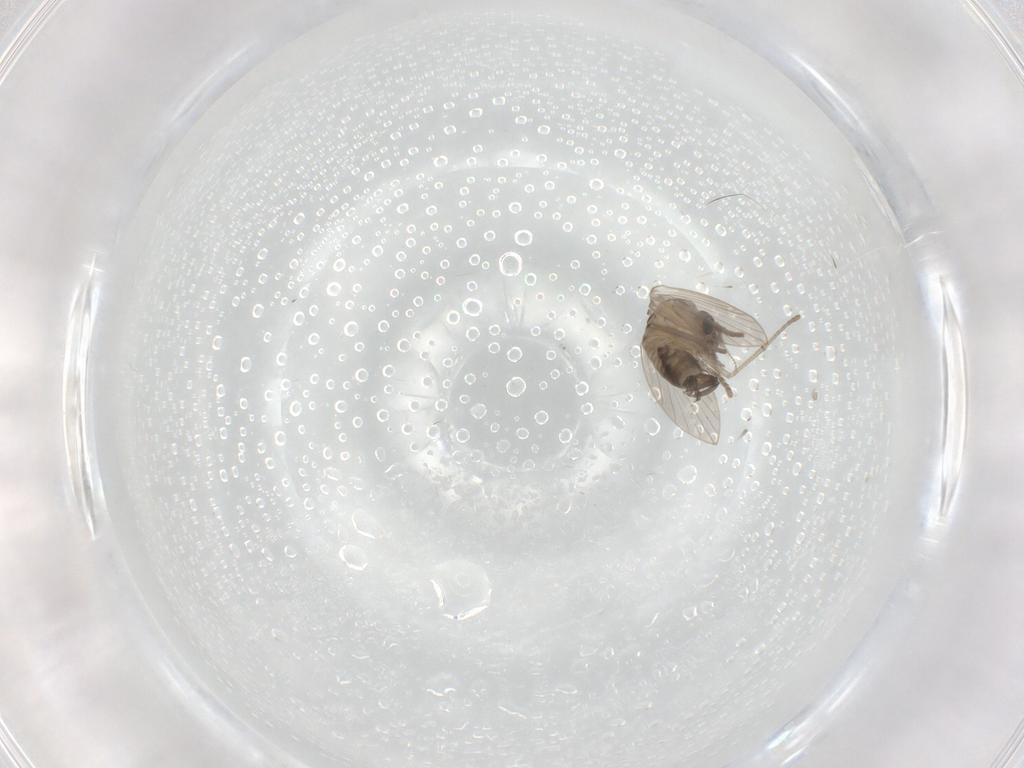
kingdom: Animalia
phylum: Arthropoda
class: Insecta
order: Diptera
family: Psychodidae
